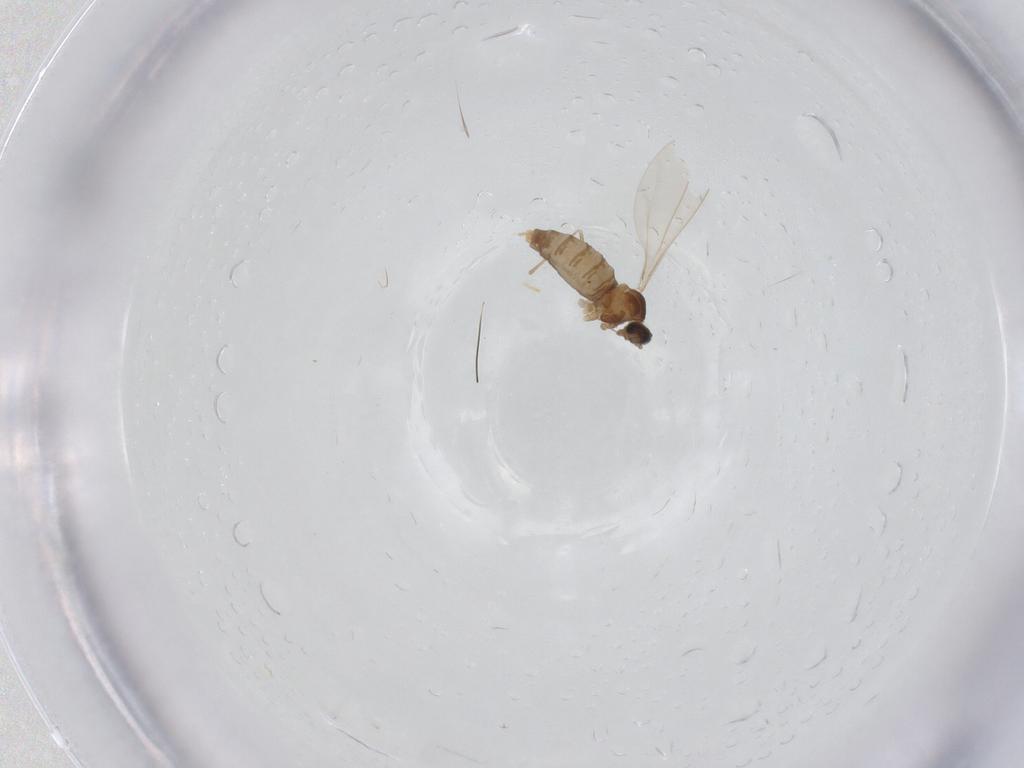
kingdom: Animalia
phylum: Arthropoda
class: Insecta
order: Diptera
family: Cecidomyiidae
